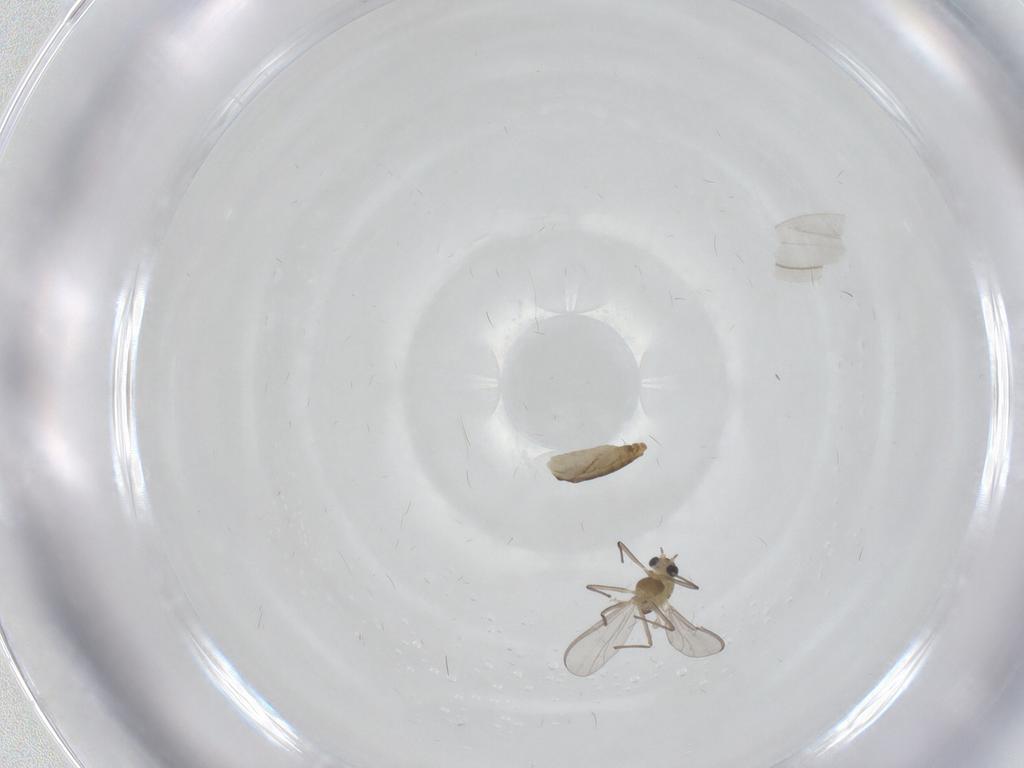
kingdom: Animalia
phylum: Arthropoda
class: Insecta
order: Diptera
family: Chironomidae
